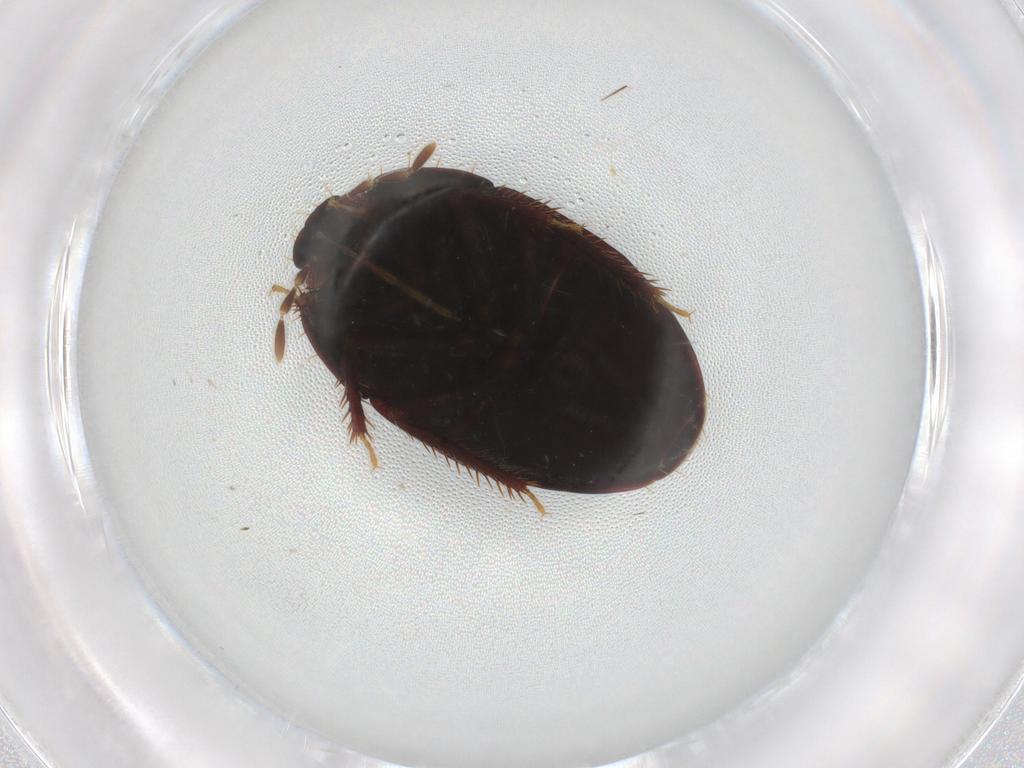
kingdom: Animalia
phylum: Arthropoda
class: Insecta
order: Hemiptera
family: Cydnidae
